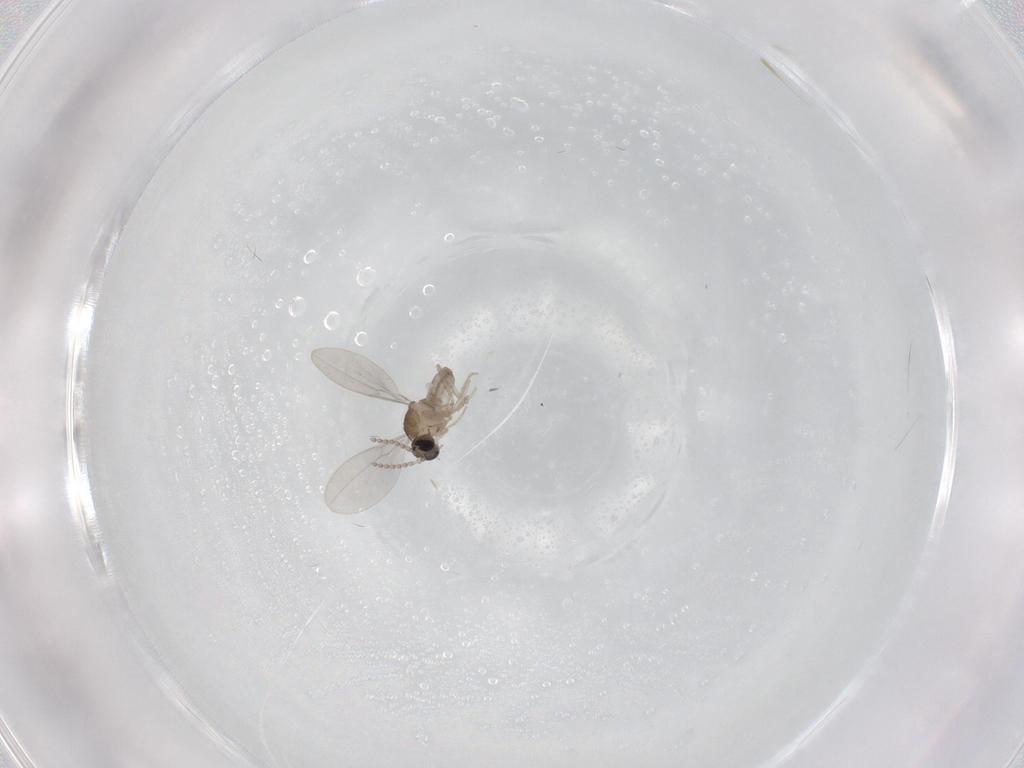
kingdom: Animalia
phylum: Arthropoda
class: Insecta
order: Diptera
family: Cecidomyiidae
